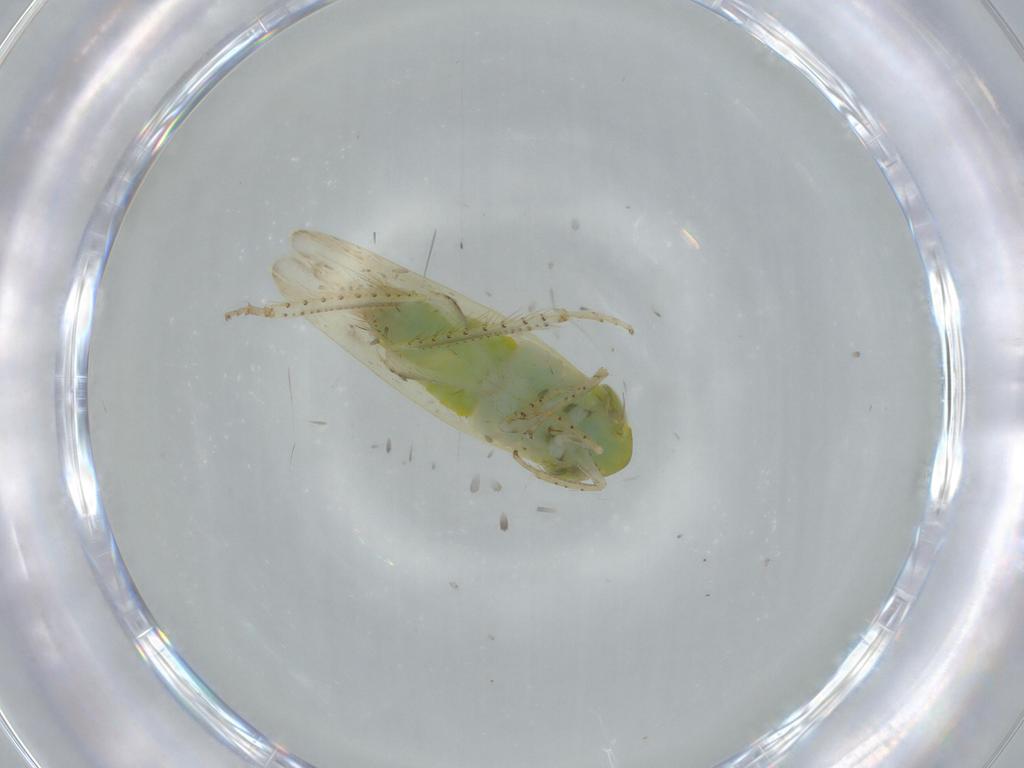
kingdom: Animalia
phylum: Arthropoda
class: Insecta
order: Hemiptera
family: Cicadellidae
